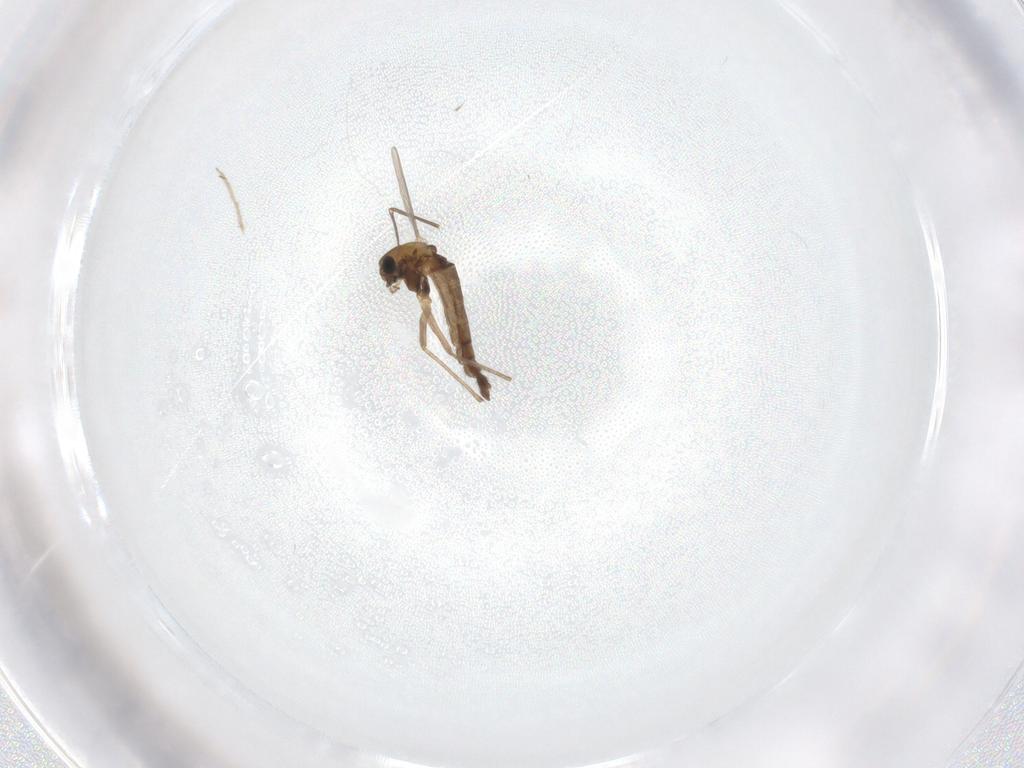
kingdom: Animalia
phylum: Arthropoda
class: Insecta
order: Diptera
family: Chironomidae
